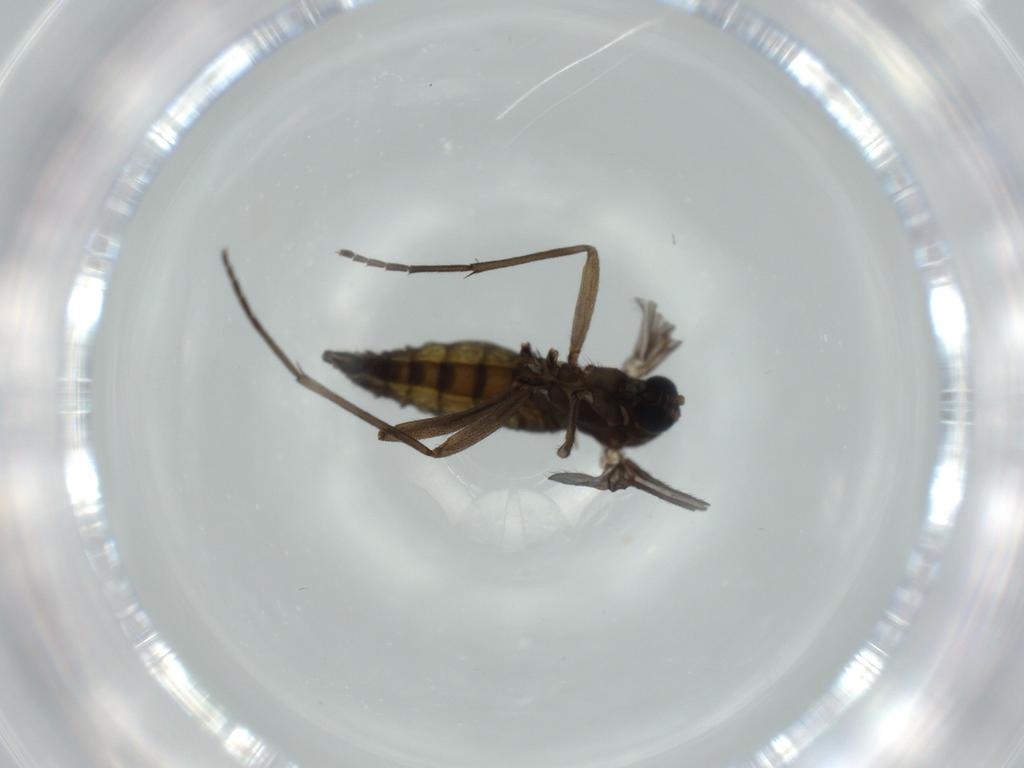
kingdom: Animalia
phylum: Arthropoda
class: Insecta
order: Diptera
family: Sciaridae
